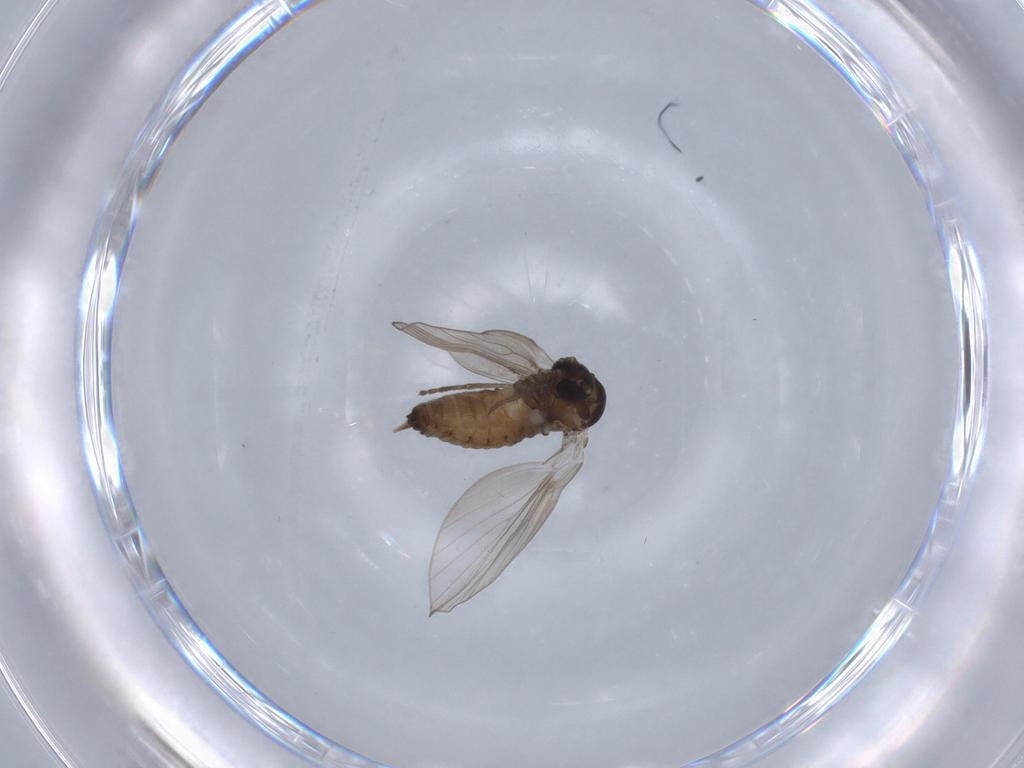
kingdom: Animalia
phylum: Arthropoda
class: Insecta
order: Diptera
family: Psychodidae
